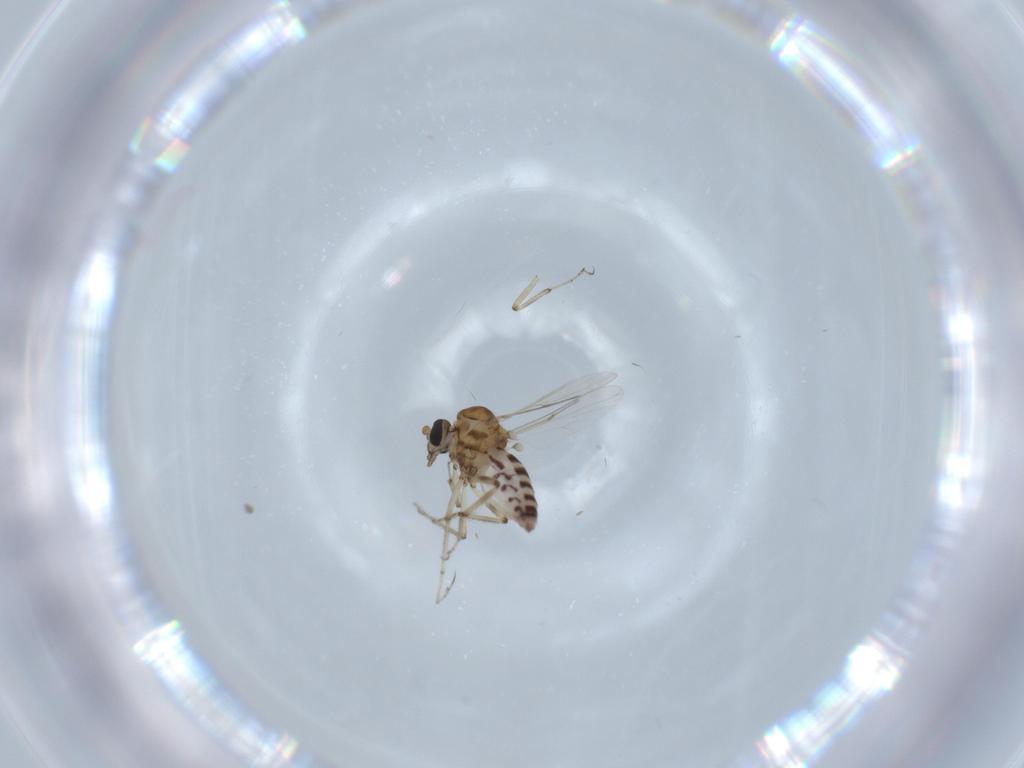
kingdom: Animalia
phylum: Arthropoda
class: Insecta
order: Diptera
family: Ceratopogonidae
